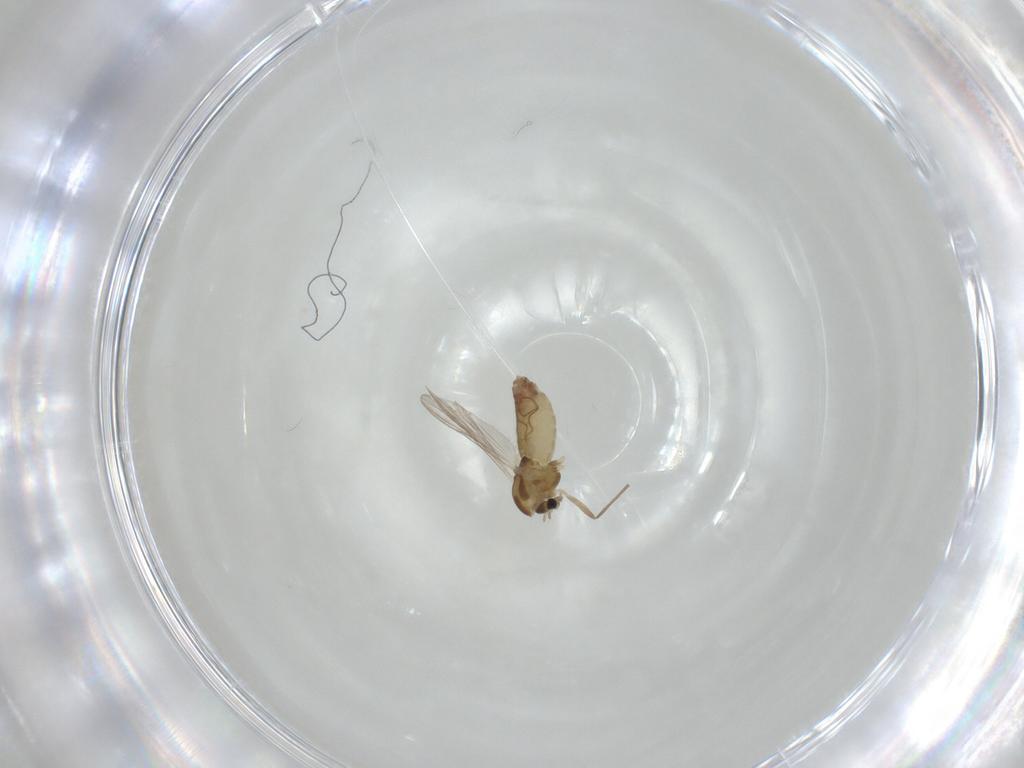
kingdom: Animalia
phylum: Arthropoda
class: Insecta
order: Diptera
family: Chironomidae
